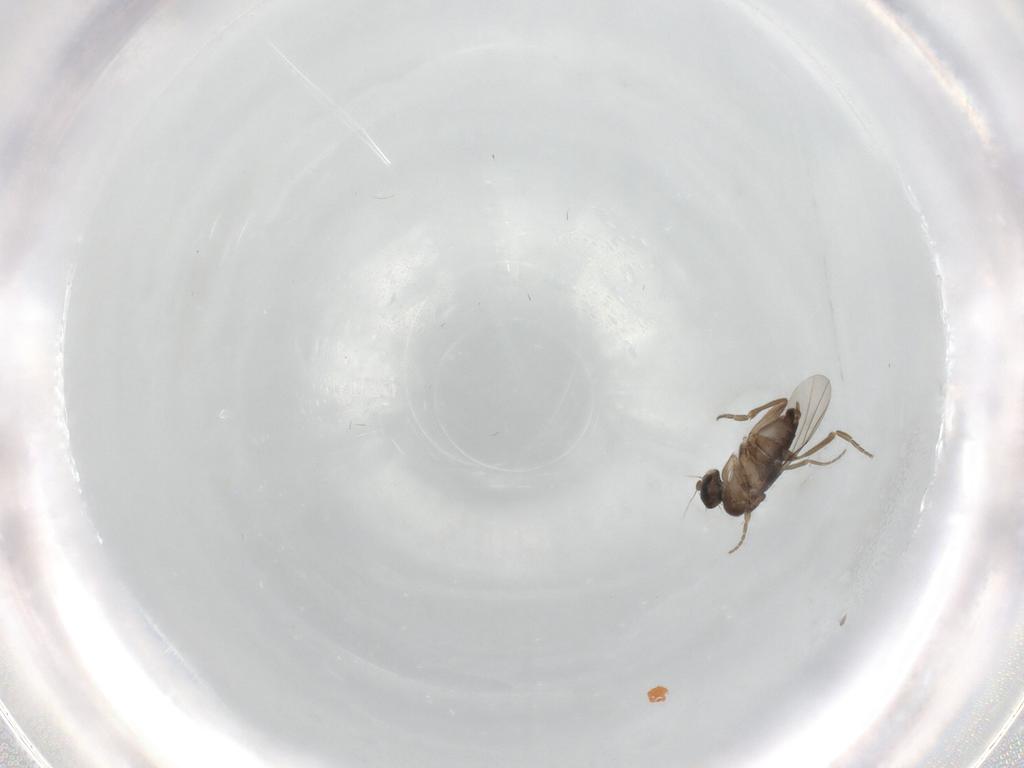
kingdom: Animalia
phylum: Arthropoda
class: Insecta
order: Diptera
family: Phoridae
